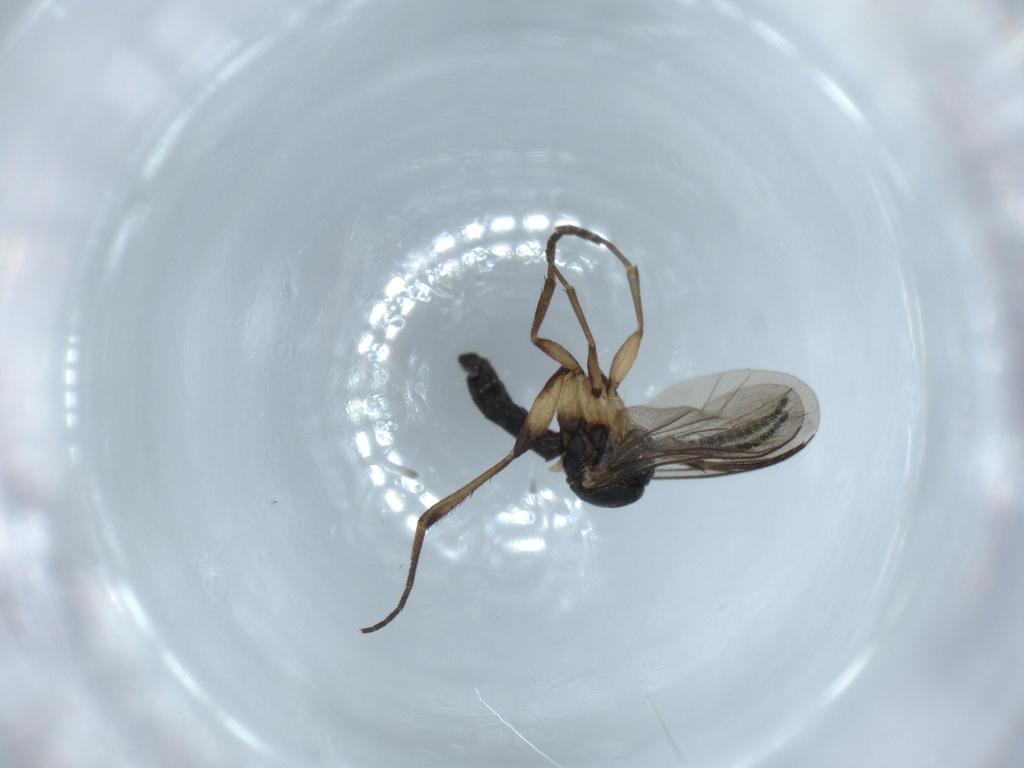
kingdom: Animalia
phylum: Arthropoda
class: Insecta
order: Diptera
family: Mycetophilidae
